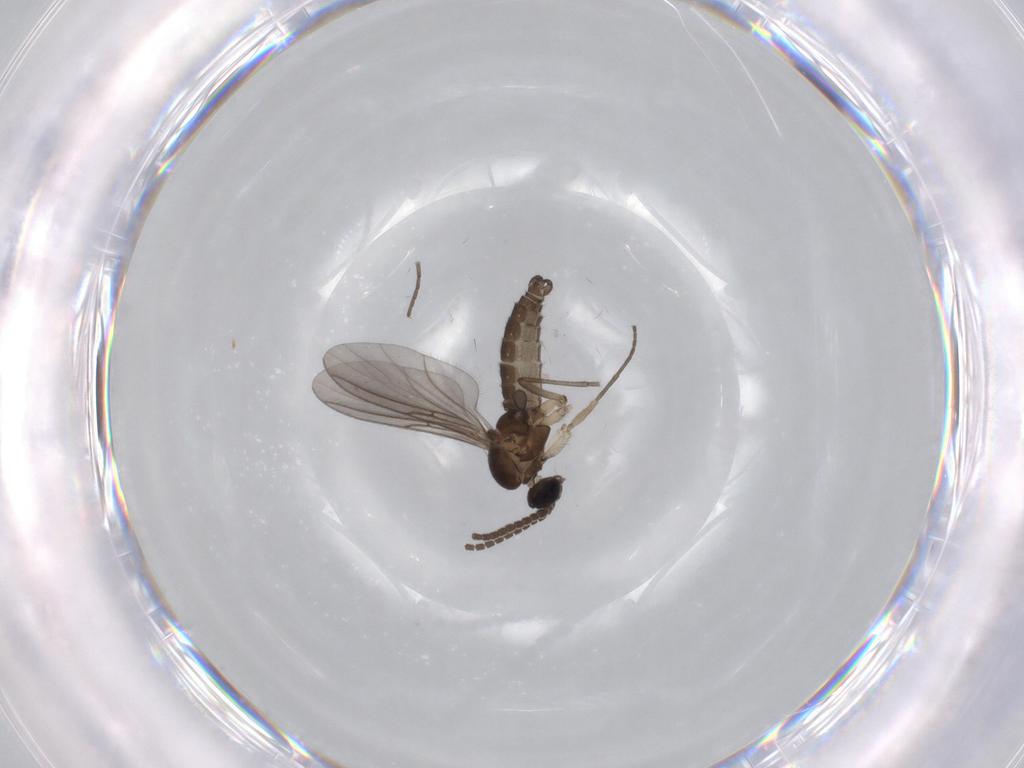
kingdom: Animalia
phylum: Arthropoda
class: Insecta
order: Diptera
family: Sciaridae
